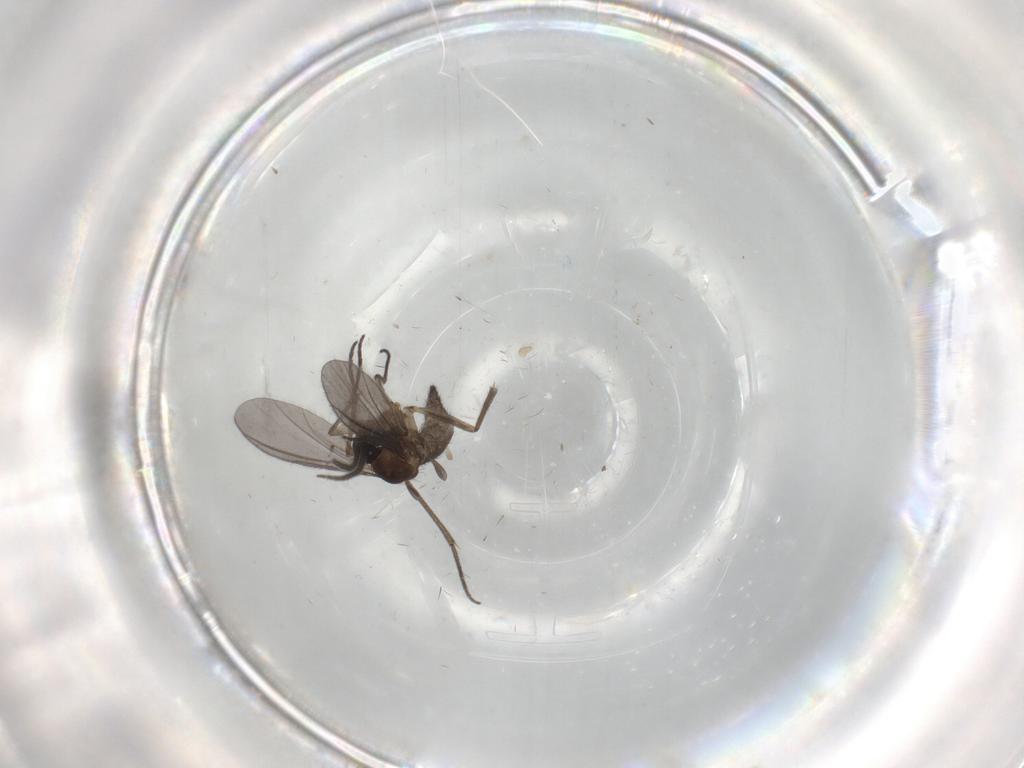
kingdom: Animalia
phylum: Arthropoda
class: Insecta
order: Diptera
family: Sciaridae
